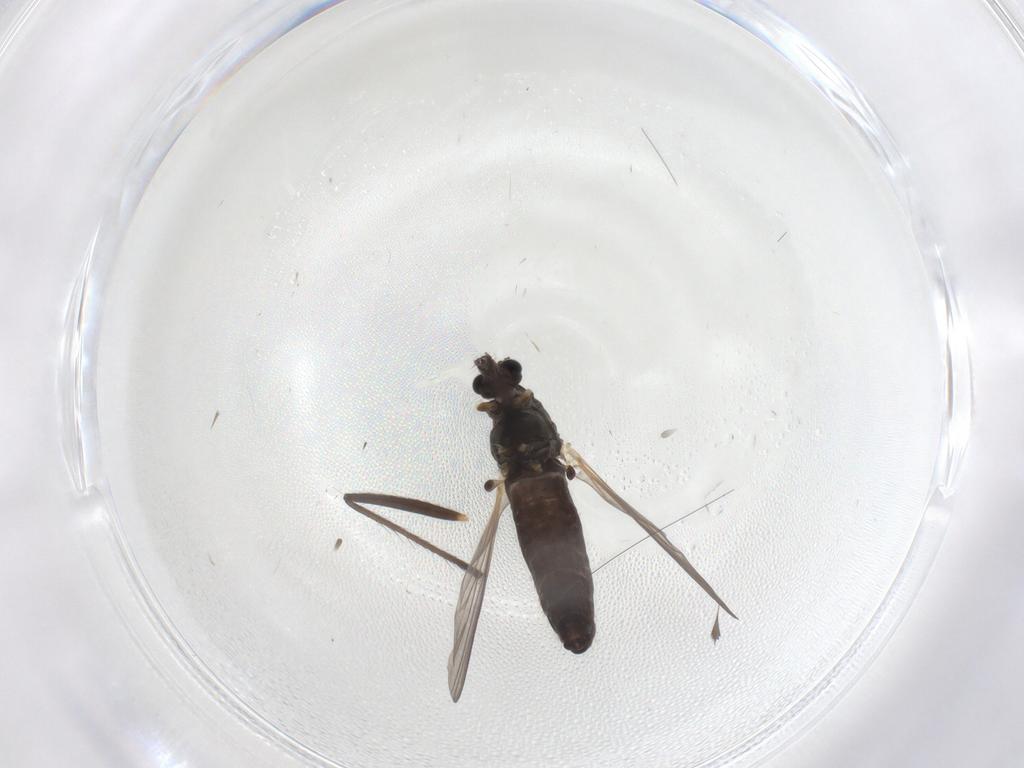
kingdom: Animalia
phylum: Arthropoda
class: Insecta
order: Diptera
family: Chironomidae
